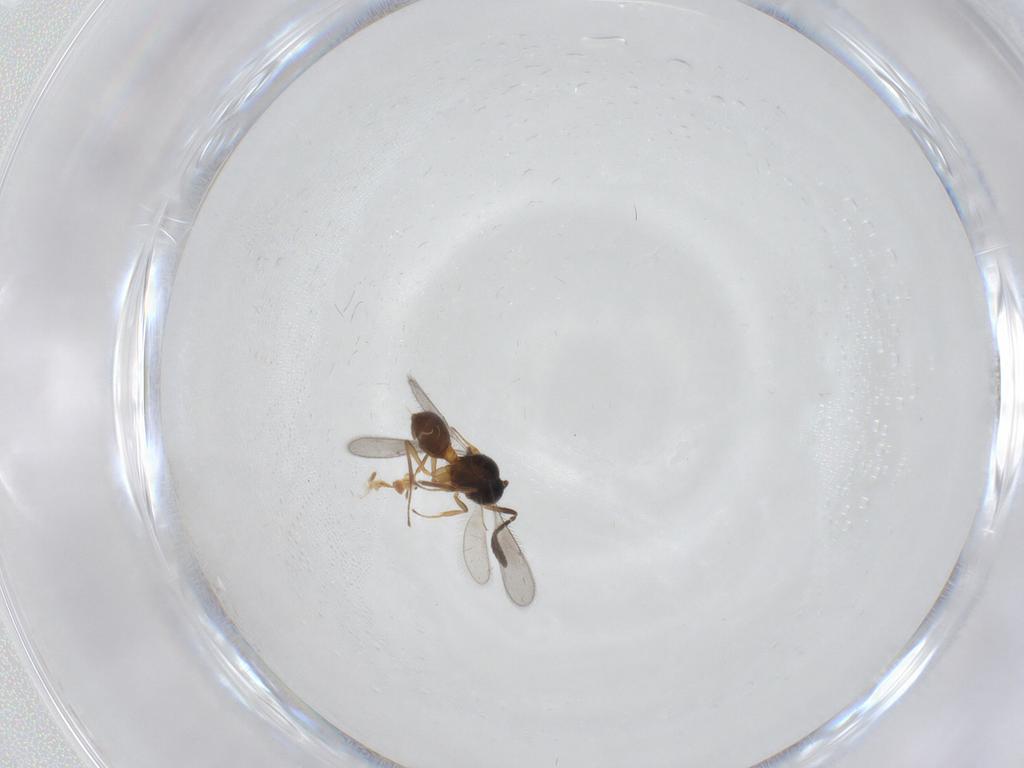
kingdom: Animalia
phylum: Arthropoda
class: Insecta
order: Hymenoptera
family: Scelionidae
